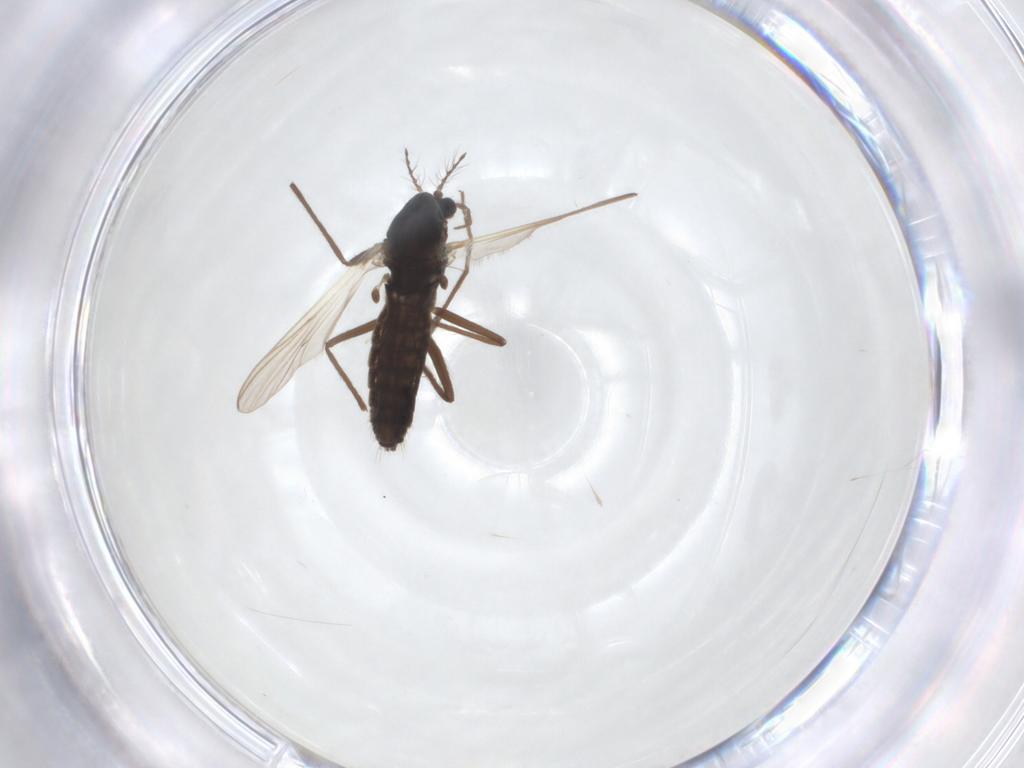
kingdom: Animalia
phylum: Arthropoda
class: Insecta
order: Diptera
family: Chironomidae
